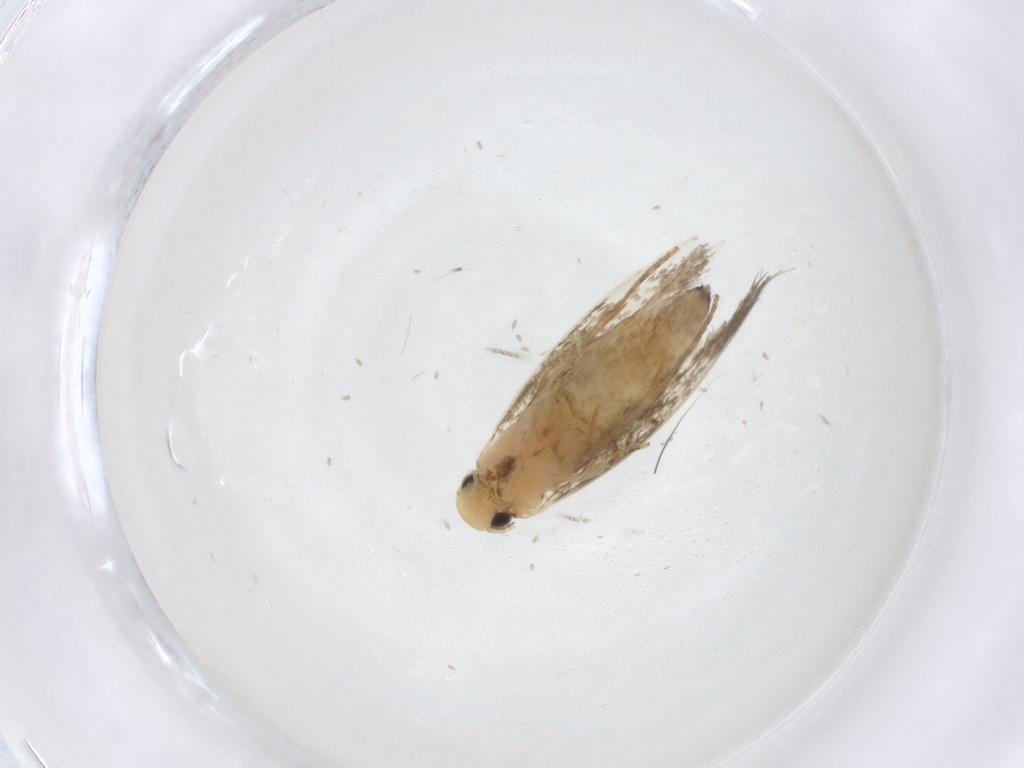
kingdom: Animalia
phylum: Arthropoda
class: Insecta
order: Lepidoptera
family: Tineidae
